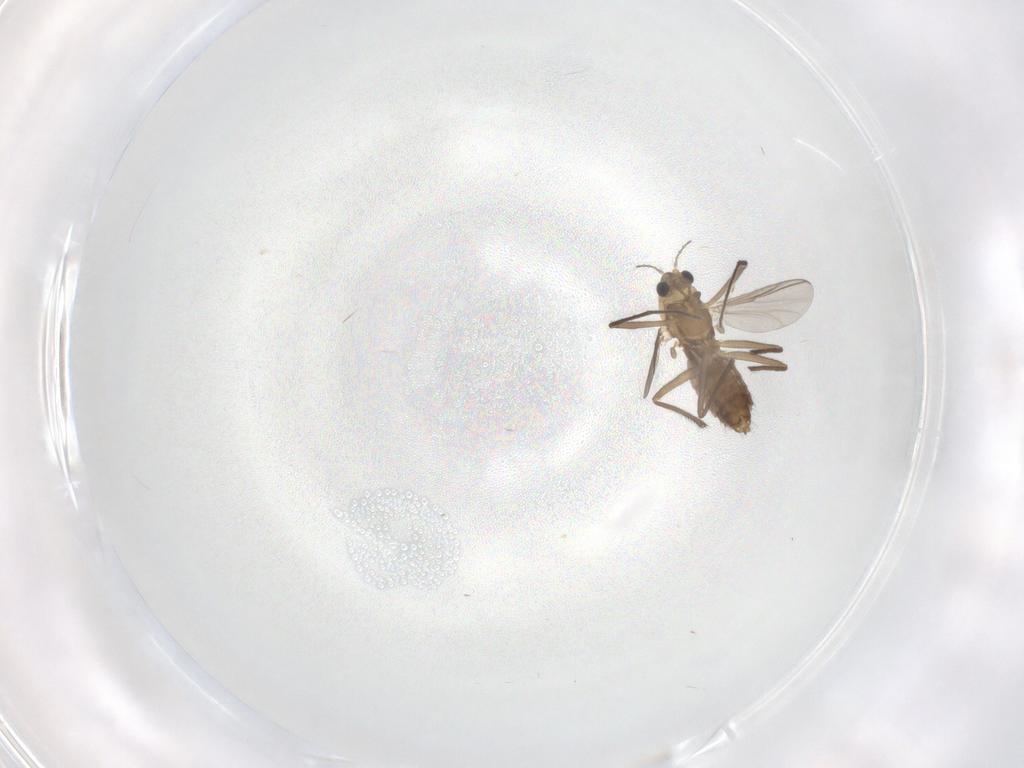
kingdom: Animalia
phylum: Arthropoda
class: Insecta
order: Diptera
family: Chironomidae
